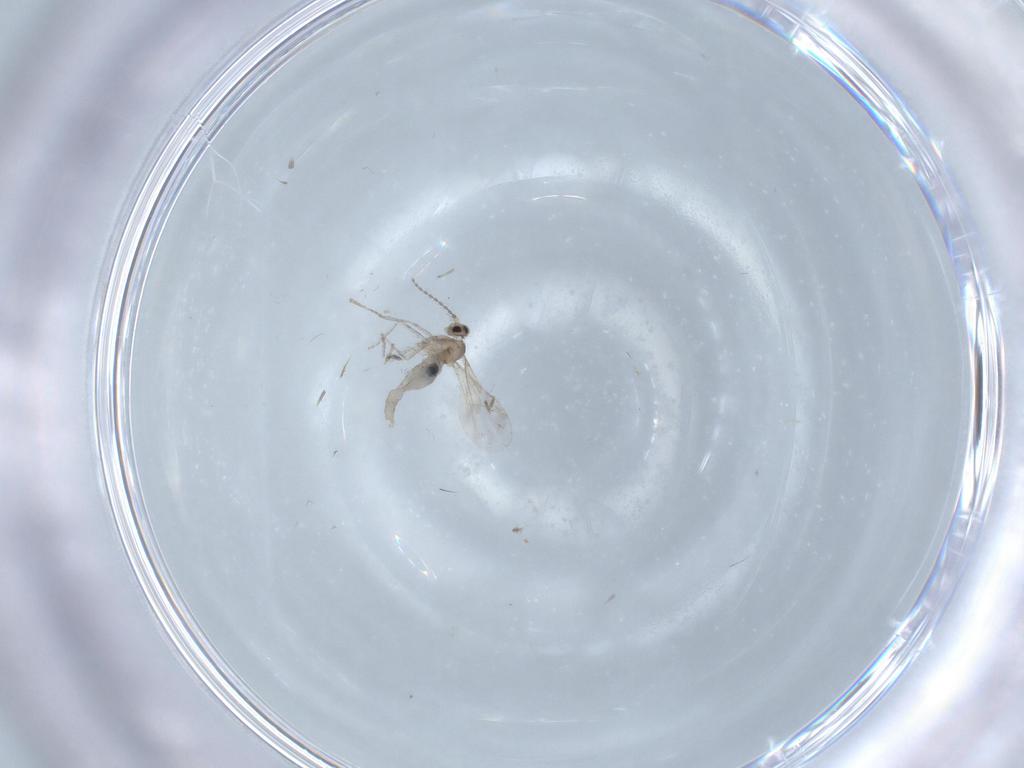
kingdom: Animalia
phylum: Arthropoda
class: Insecta
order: Diptera
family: Cecidomyiidae
